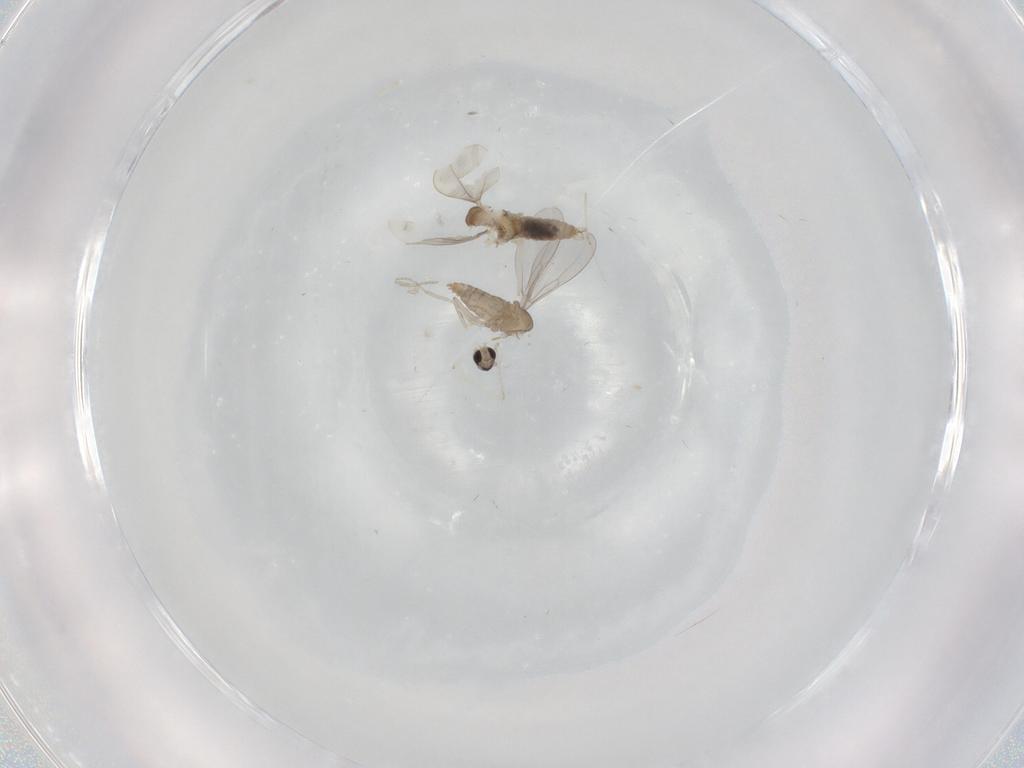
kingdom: Animalia
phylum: Arthropoda
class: Insecta
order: Diptera
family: Cecidomyiidae
